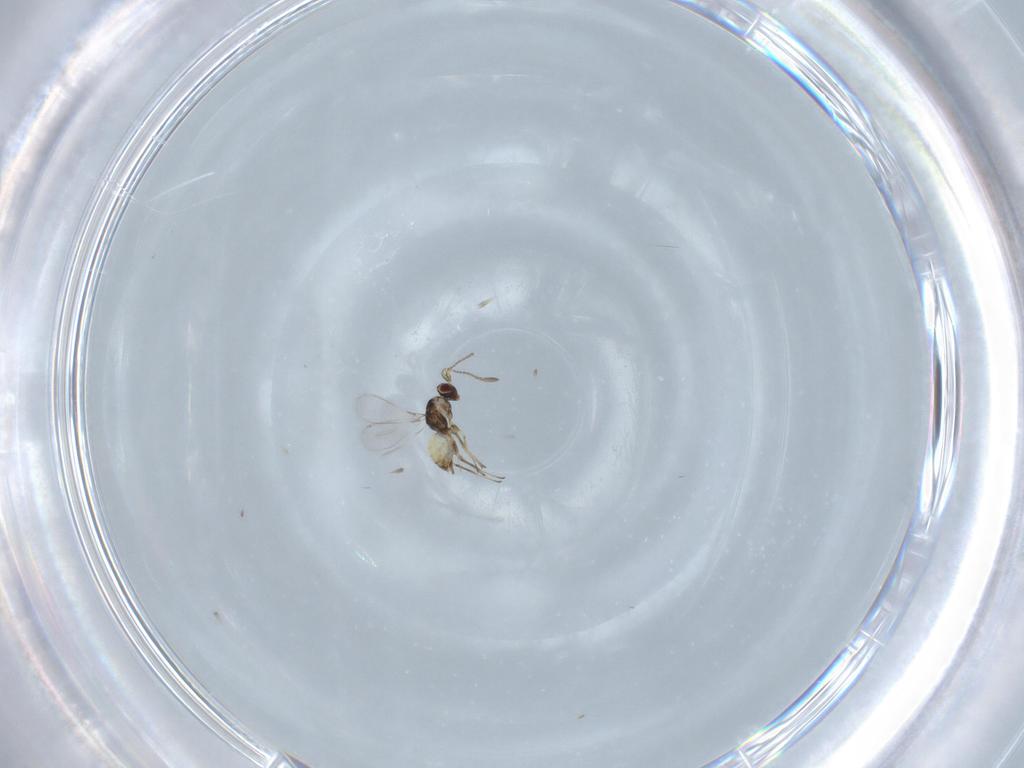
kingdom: Animalia
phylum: Arthropoda
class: Insecta
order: Hymenoptera
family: Mymaridae
